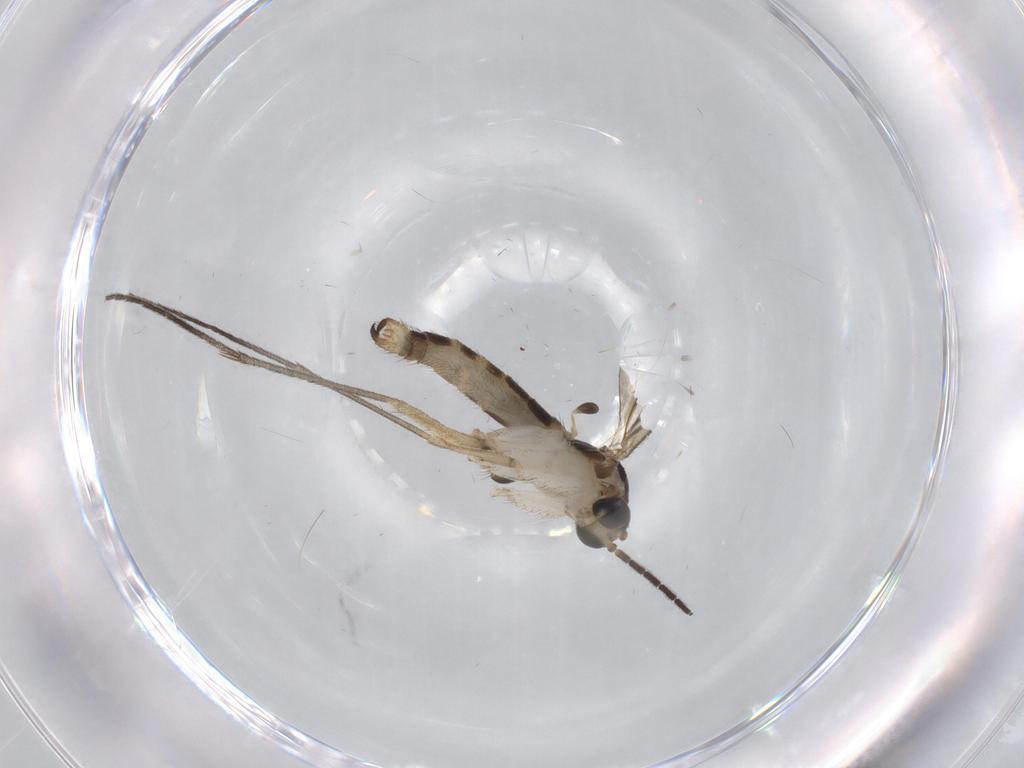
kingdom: Animalia
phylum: Arthropoda
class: Insecta
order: Diptera
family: Sciaridae
